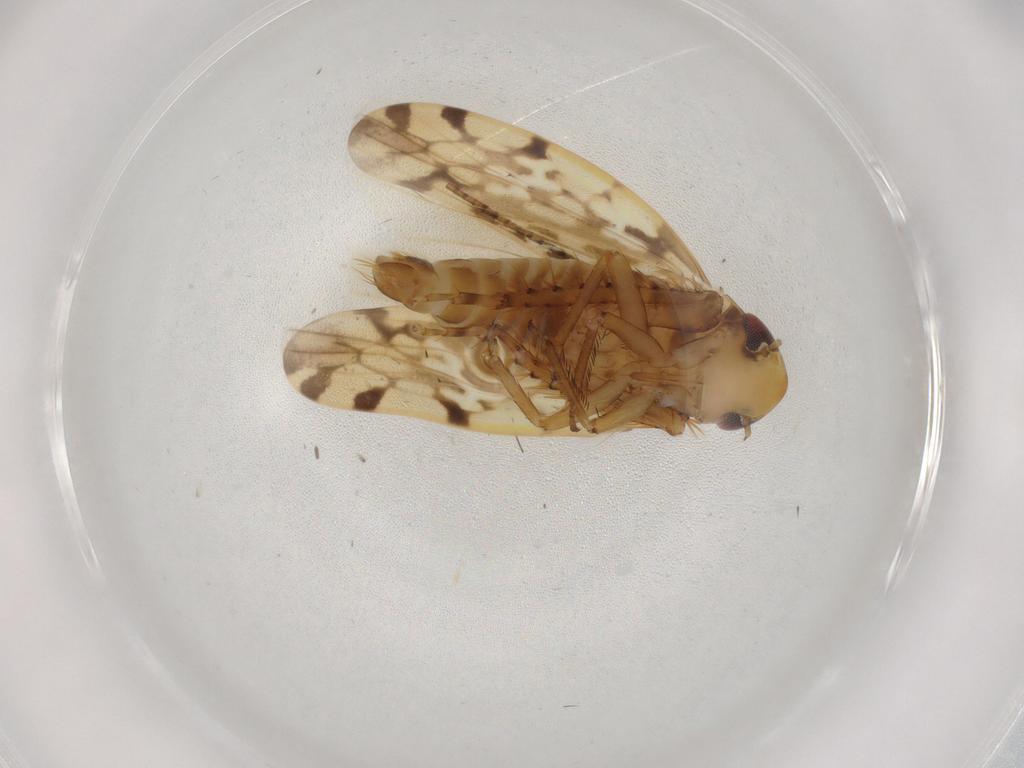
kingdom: Animalia
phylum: Arthropoda
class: Insecta
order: Hemiptera
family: Cicadellidae
